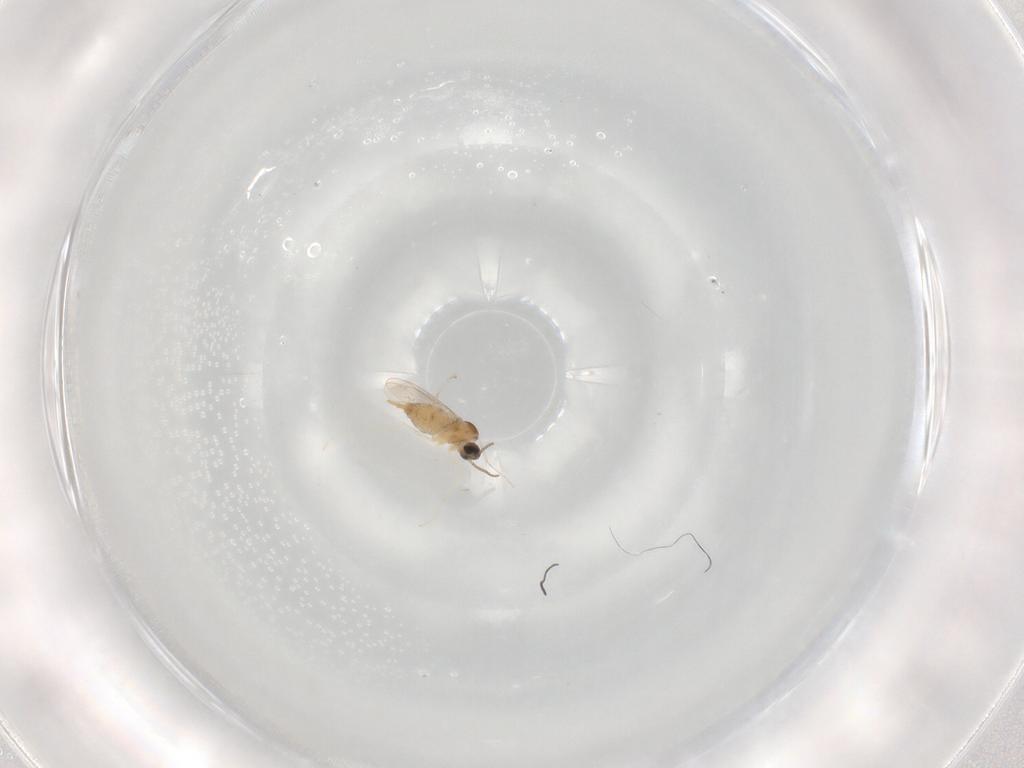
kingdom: Animalia
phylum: Arthropoda
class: Insecta
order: Diptera
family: Cecidomyiidae
